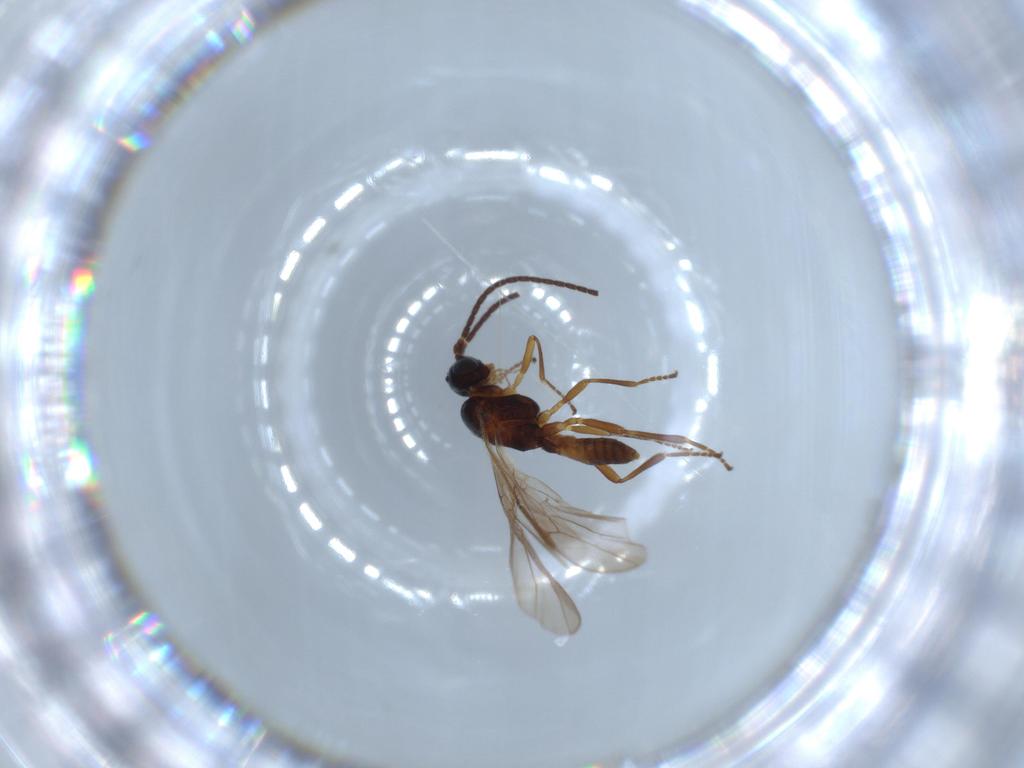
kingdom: Animalia
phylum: Arthropoda
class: Insecta
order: Hymenoptera
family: Braconidae
